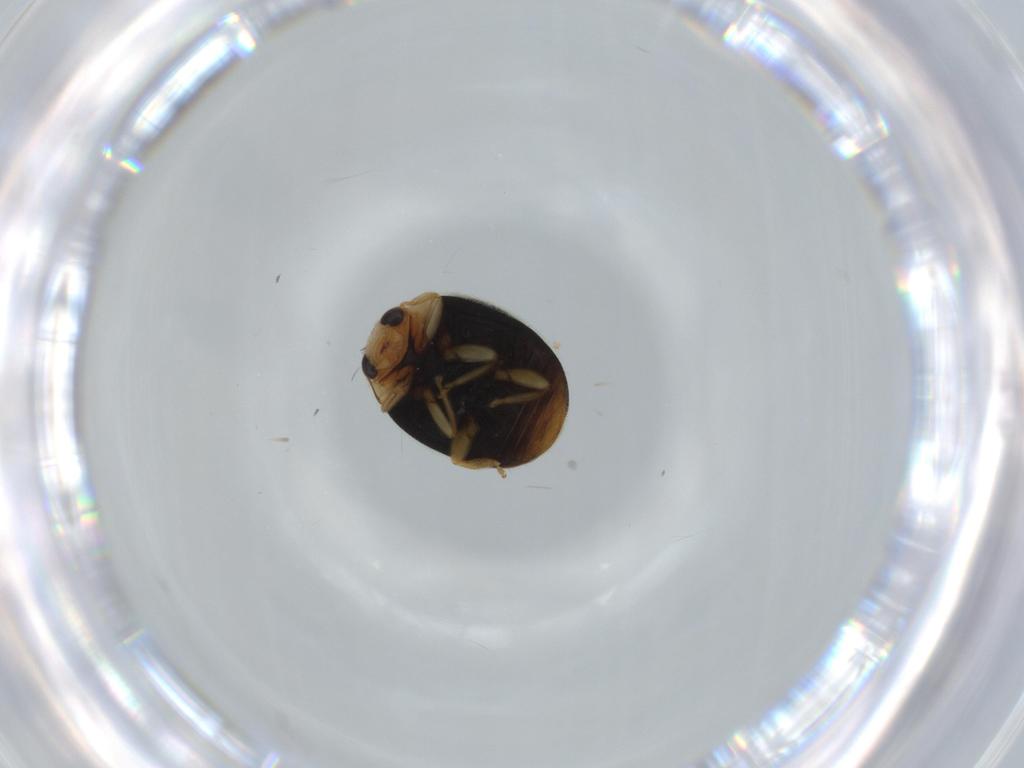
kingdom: Animalia
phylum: Arthropoda
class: Insecta
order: Coleoptera
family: Coccinellidae
